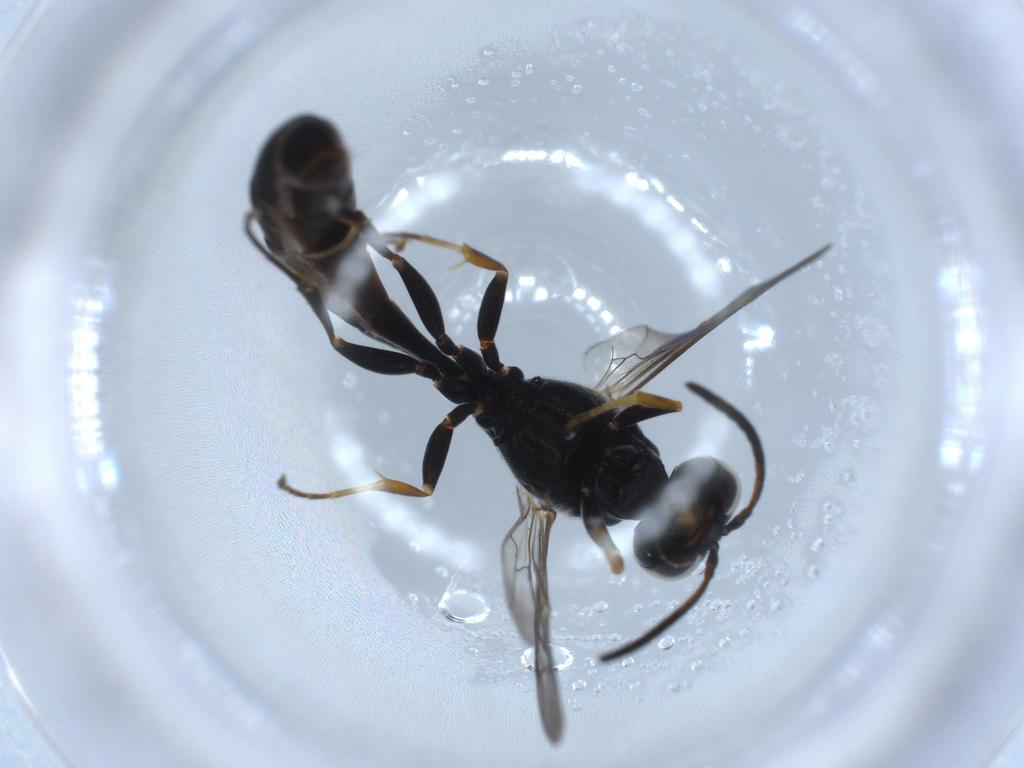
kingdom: Animalia
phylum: Arthropoda
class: Insecta
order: Hymenoptera
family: Crabronidae
